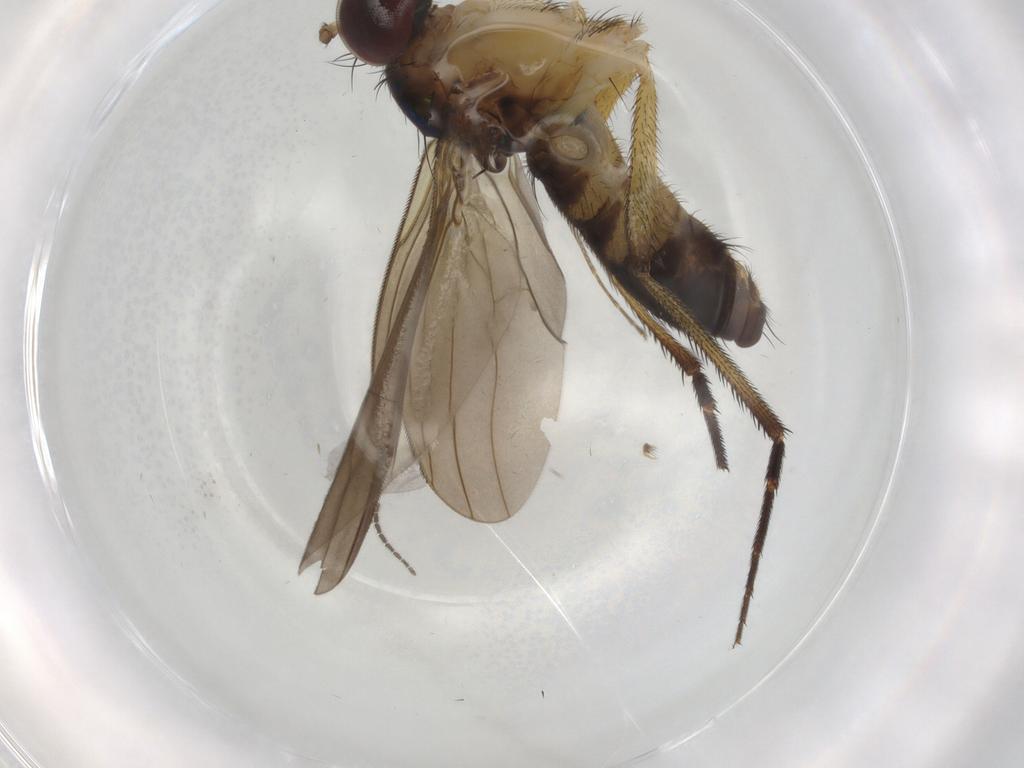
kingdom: Animalia
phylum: Arthropoda
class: Insecta
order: Diptera
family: Dolichopodidae
